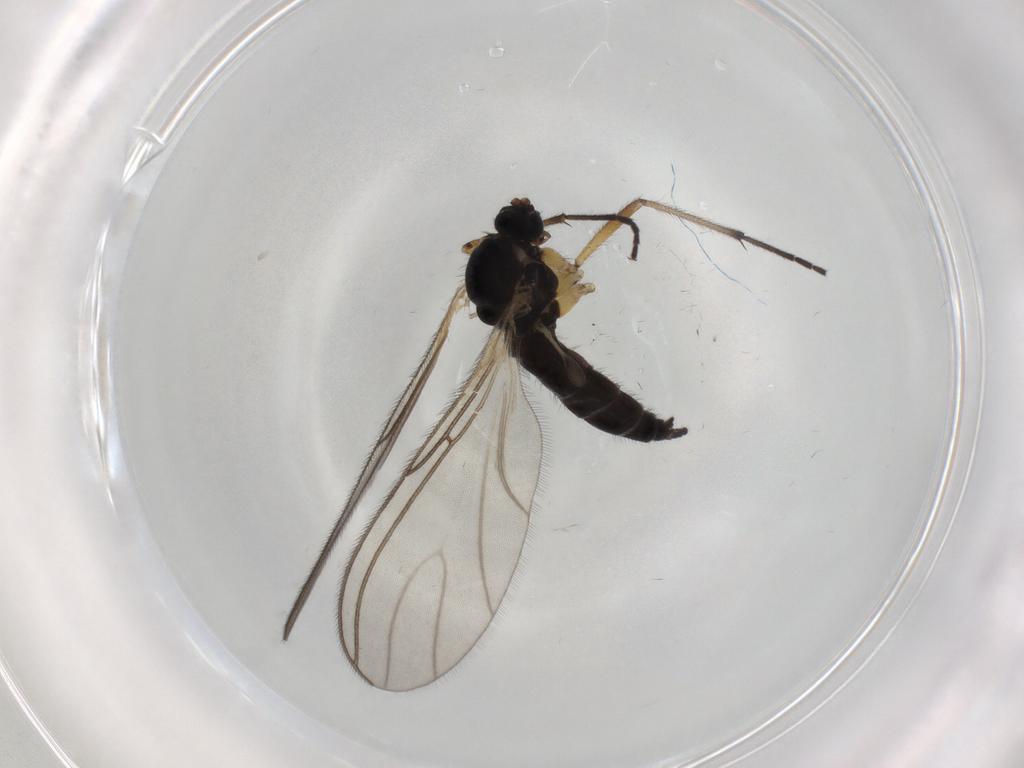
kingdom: Animalia
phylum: Arthropoda
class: Insecta
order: Diptera
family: Sciaridae
